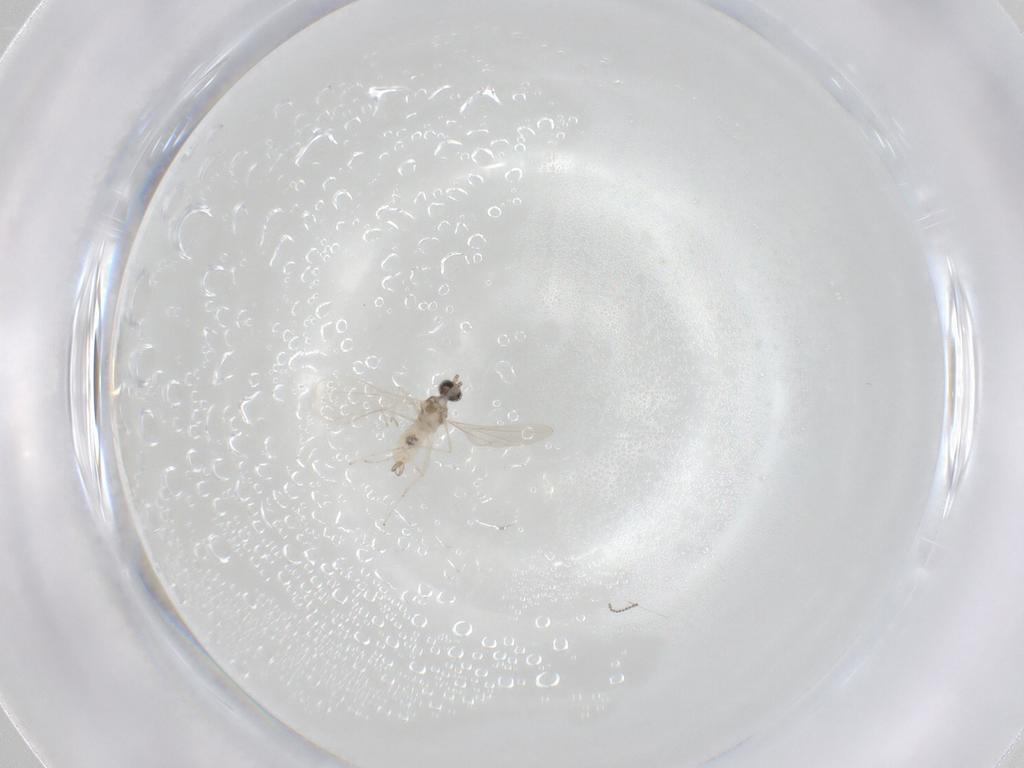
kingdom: Animalia
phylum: Arthropoda
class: Insecta
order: Diptera
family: Cecidomyiidae
